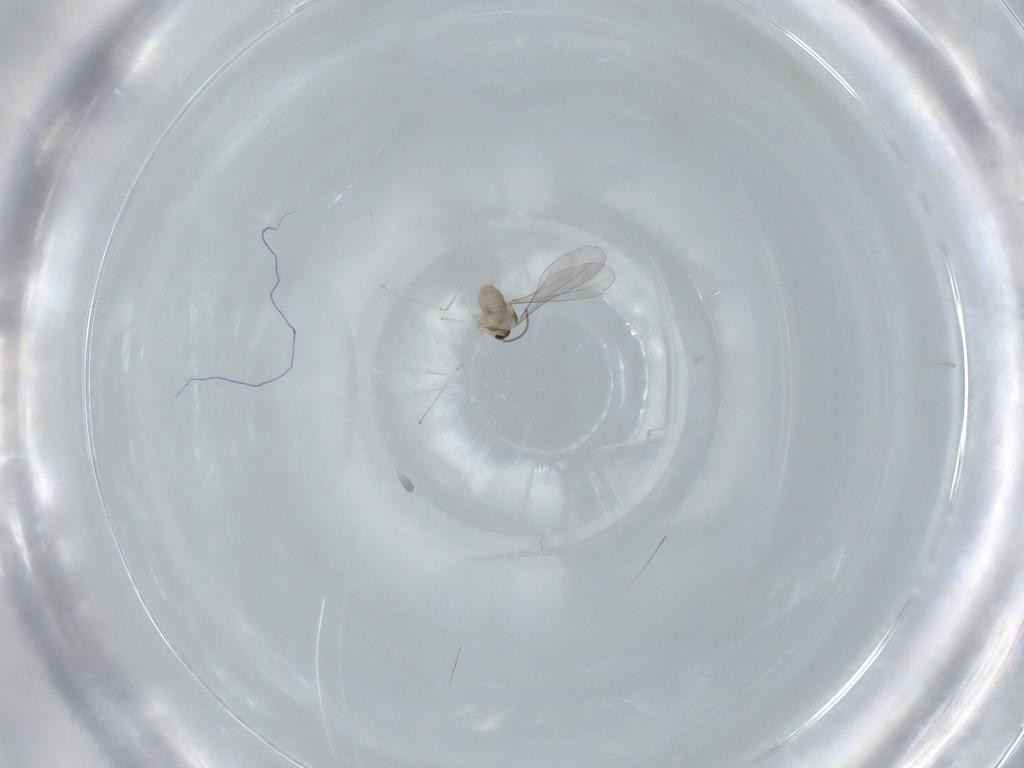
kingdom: Animalia
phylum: Arthropoda
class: Insecta
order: Diptera
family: Cecidomyiidae
